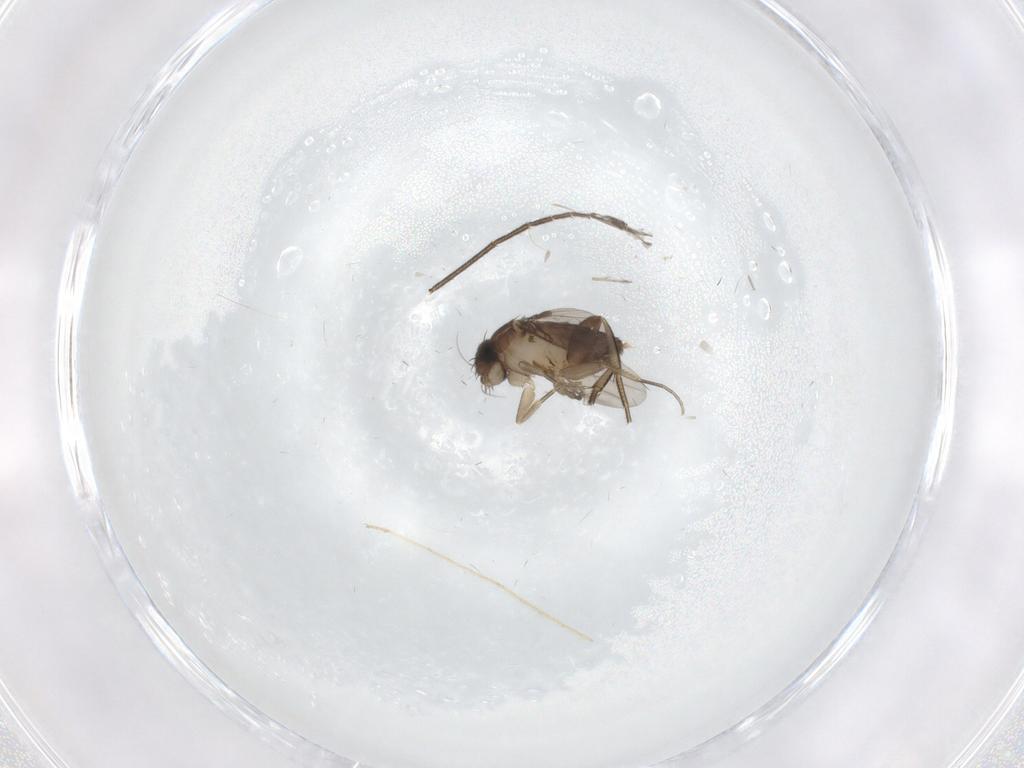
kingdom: Animalia
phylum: Arthropoda
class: Insecta
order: Diptera
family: Phoridae
